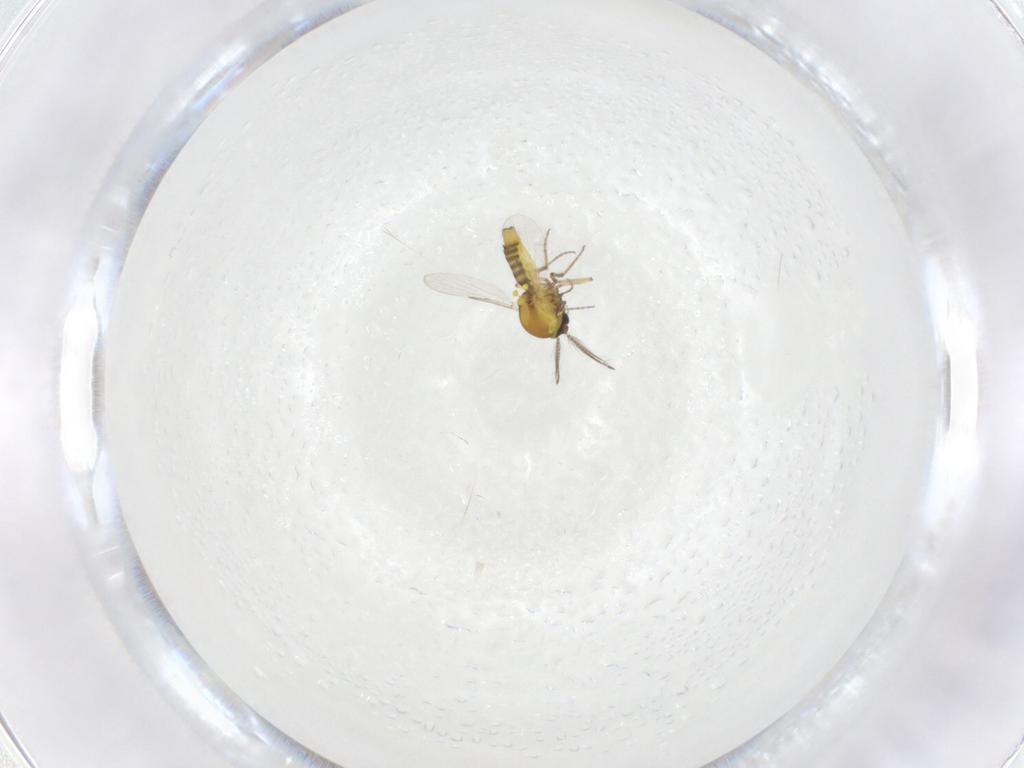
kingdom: Animalia
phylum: Arthropoda
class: Insecta
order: Diptera
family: Ceratopogonidae
